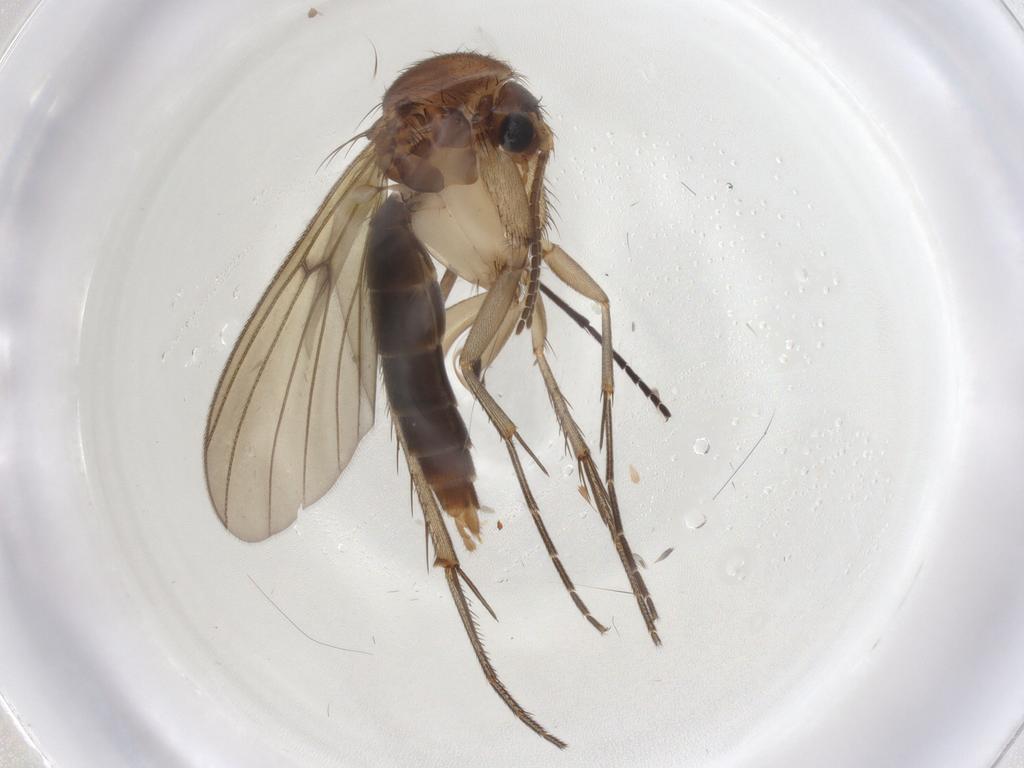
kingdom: Animalia
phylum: Arthropoda
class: Insecta
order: Diptera
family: Mycetophilidae
